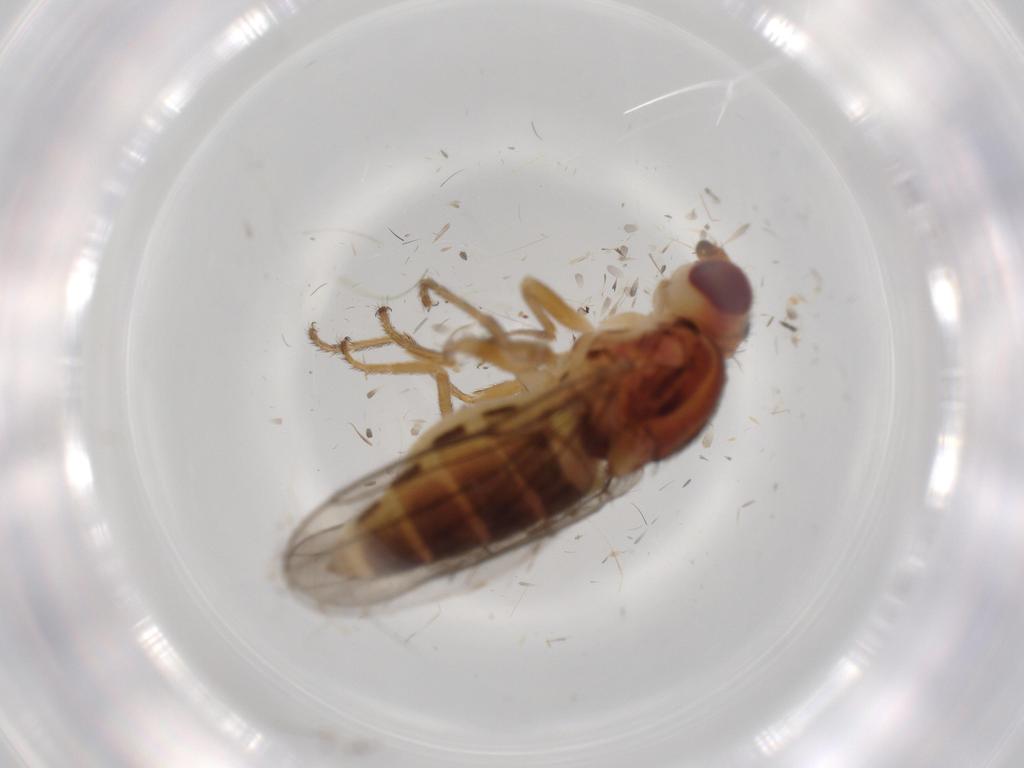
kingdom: Animalia
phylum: Arthropoda
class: Insecta
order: Diptera
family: Chloropidae
